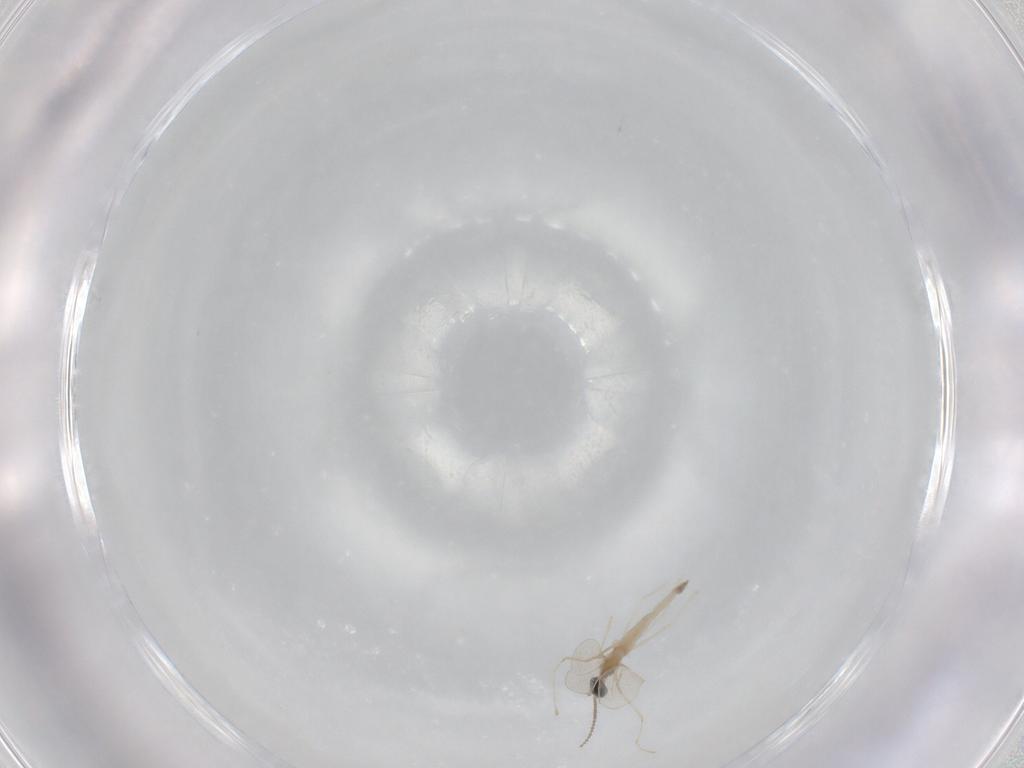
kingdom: Animalia
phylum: Arthropoda
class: Insecta
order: Diptera
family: Cecidomyiidae
